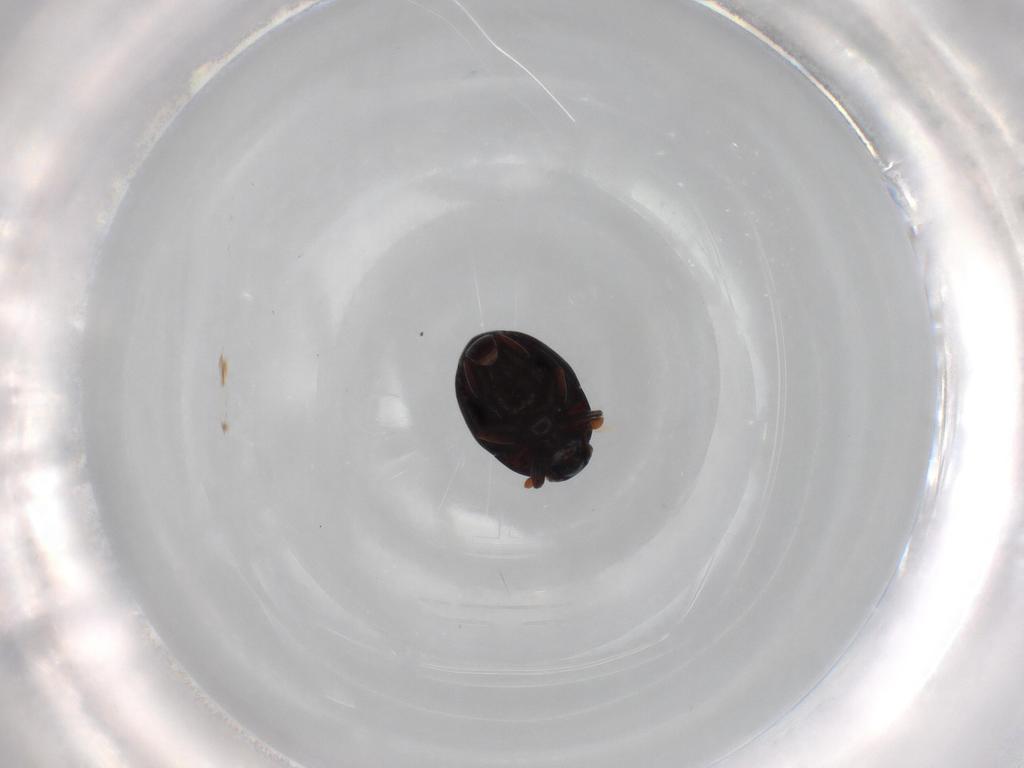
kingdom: Animalia
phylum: Arthropoda
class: Insecta
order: Coleoptera
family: Histeridae
